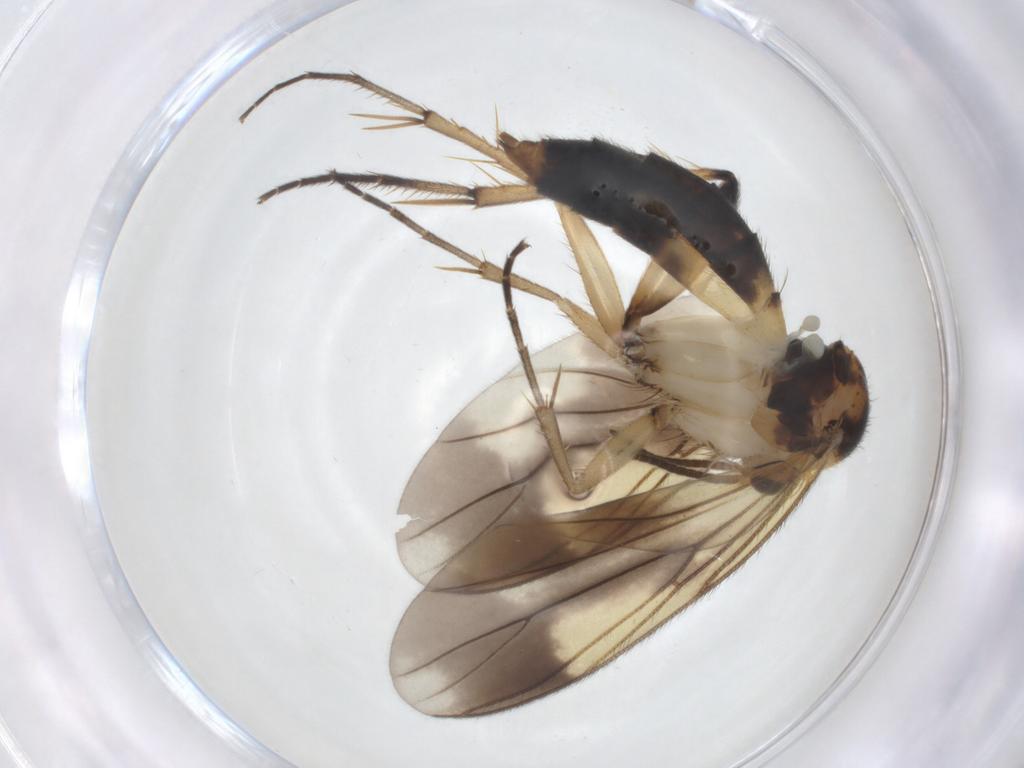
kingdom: Animalia
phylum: Arthropoda
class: Insecta
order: Diptera
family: Mycetophilidae
